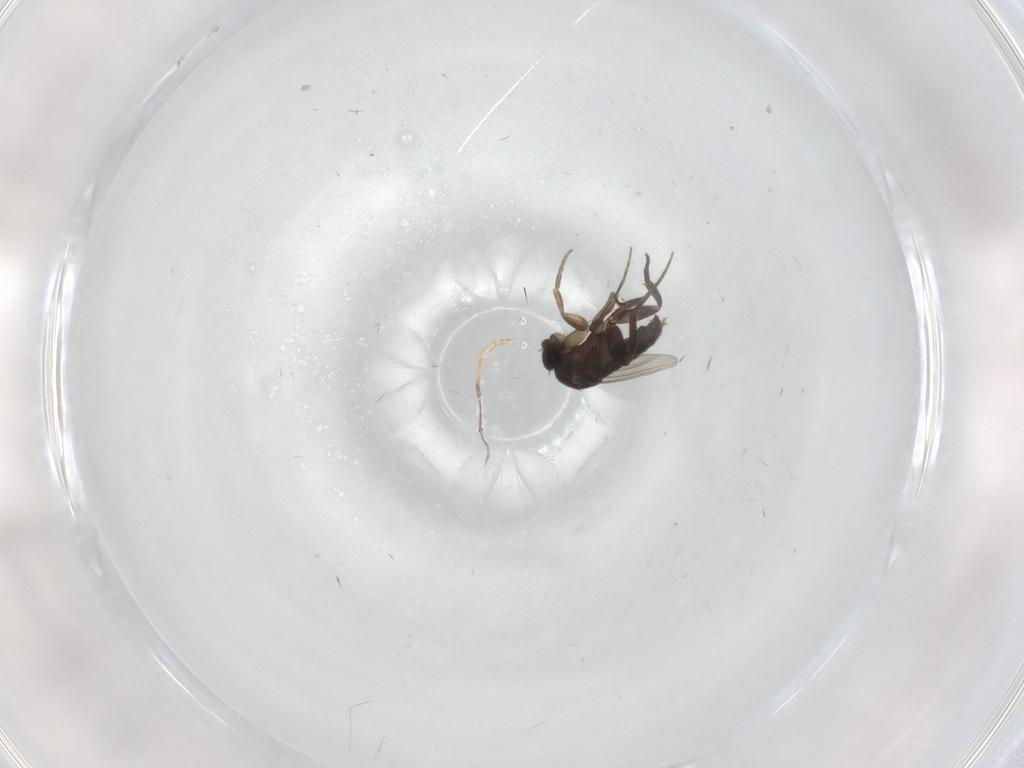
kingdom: Animalia
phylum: Arthropoda
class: Insecta
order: Diptera
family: Phoridae
